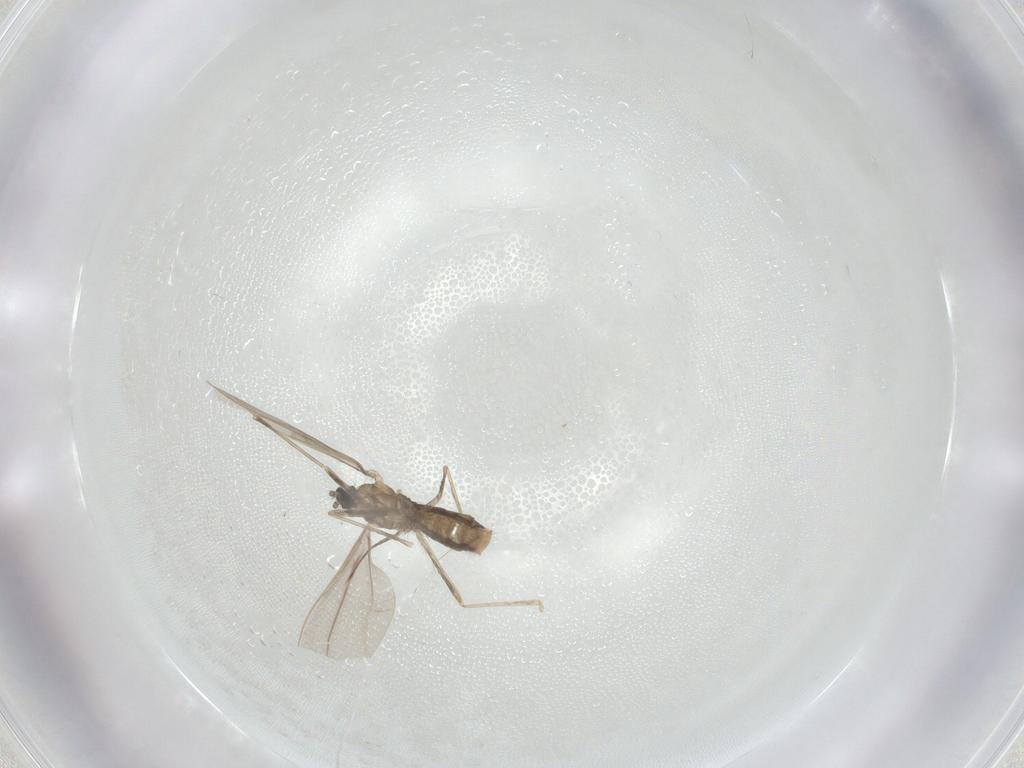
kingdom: Animalia
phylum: Arthropoda
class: Insecta
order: Diptera
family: Cecidomyiidae
